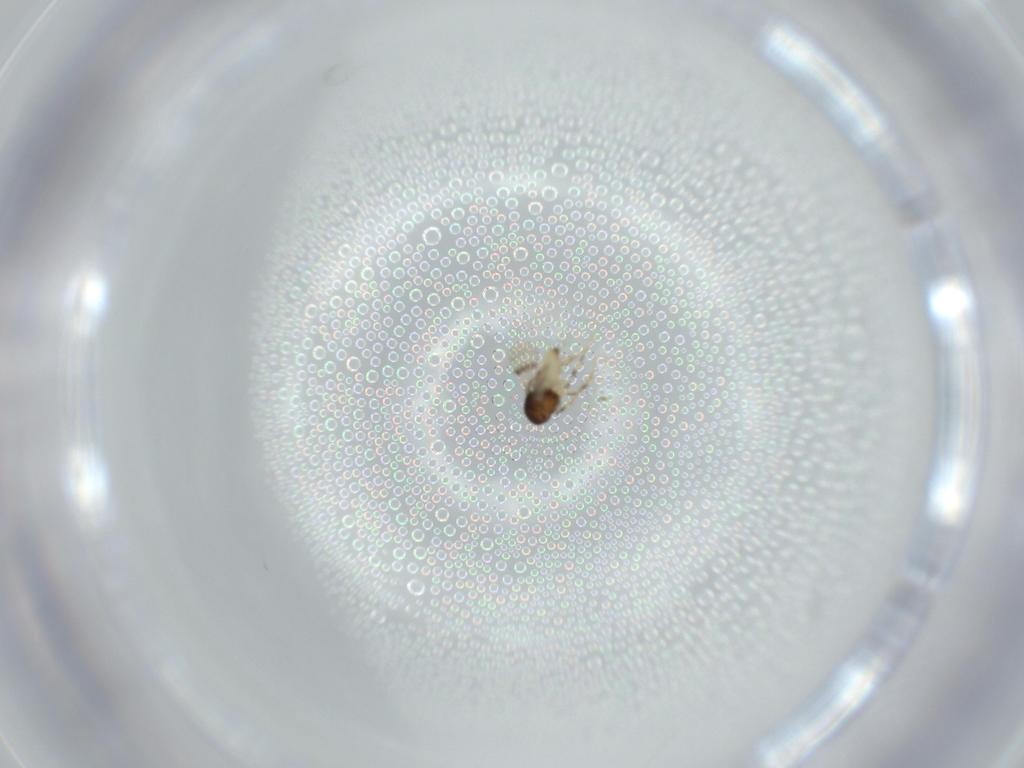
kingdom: Animalia
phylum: Arthropoda
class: Insecta
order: Hymenoptera
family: Scelionidae
